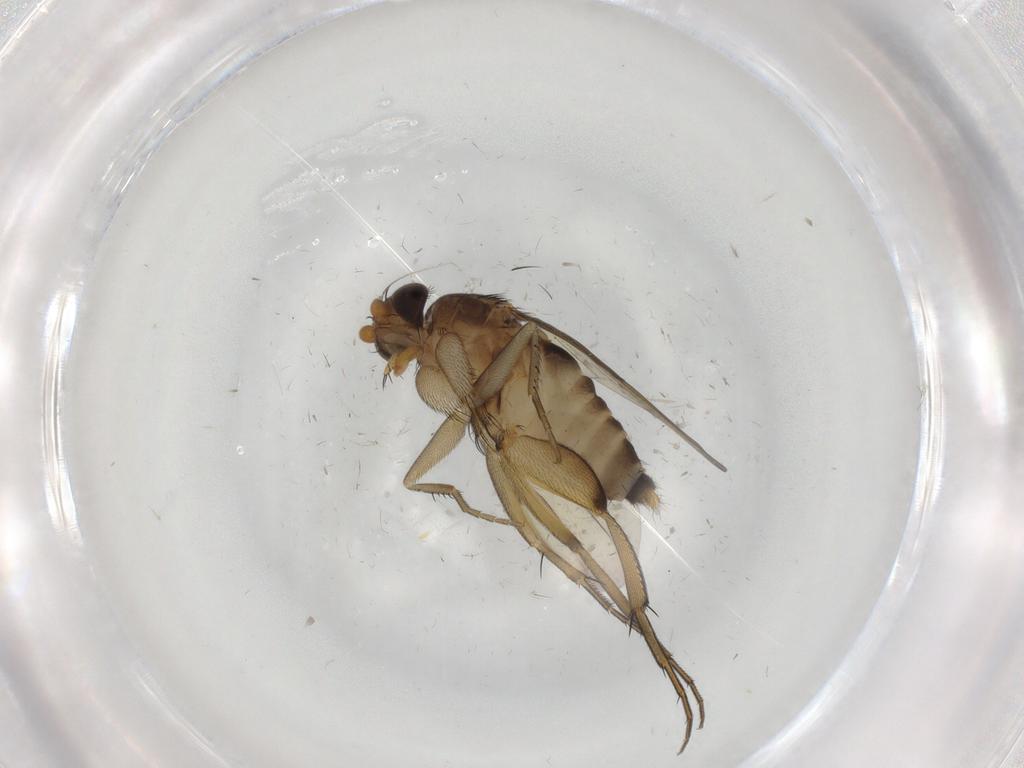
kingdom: Animalia
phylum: Arthropoda
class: Insecta
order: Diptera
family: Phoridae
